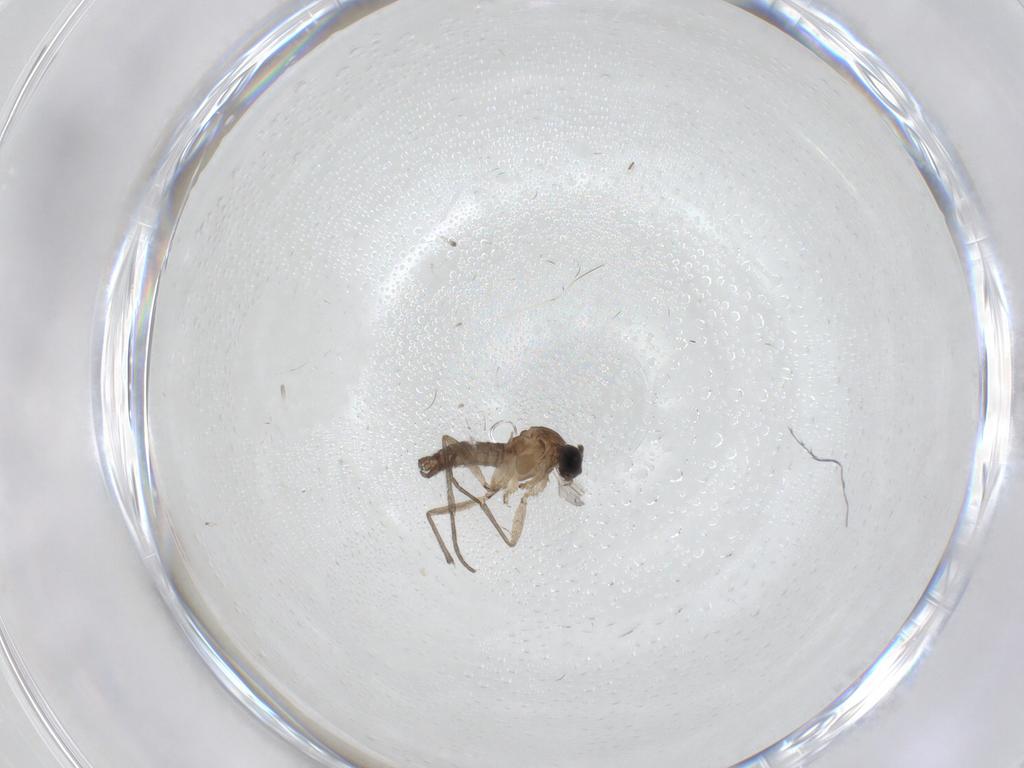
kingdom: Animalia
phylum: Arthropoda
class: Insecta
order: Diptera
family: Sciaridae
